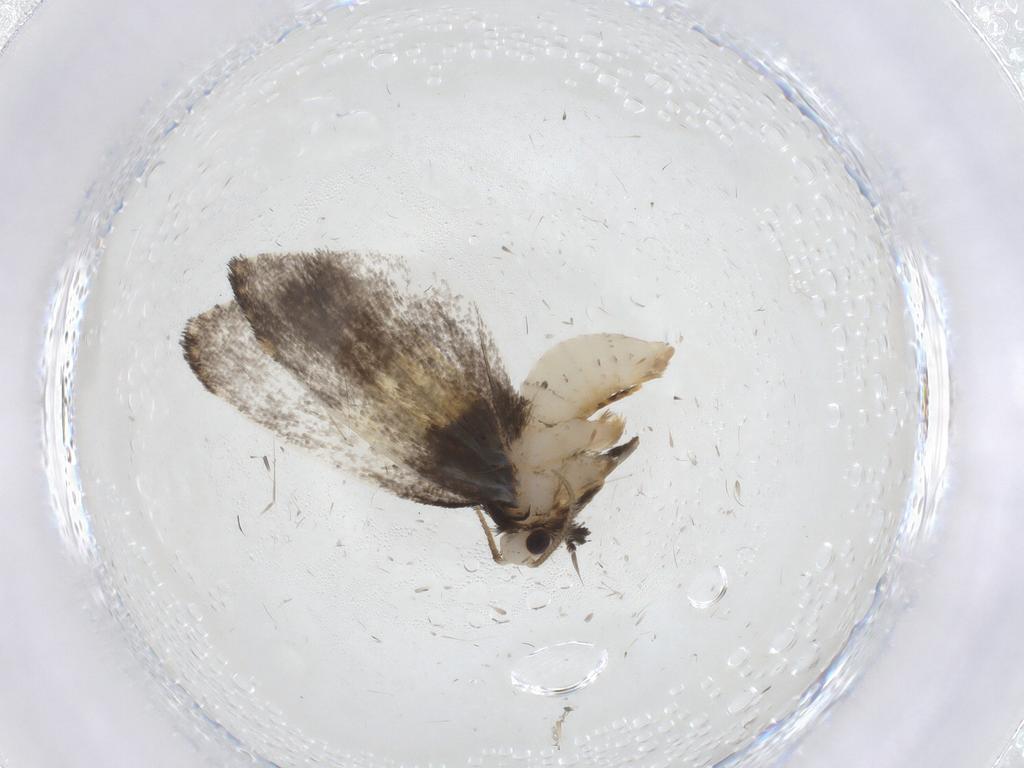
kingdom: Animalia
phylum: Arthropoda
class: Insecta
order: Lepidoptera
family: Psychidae
